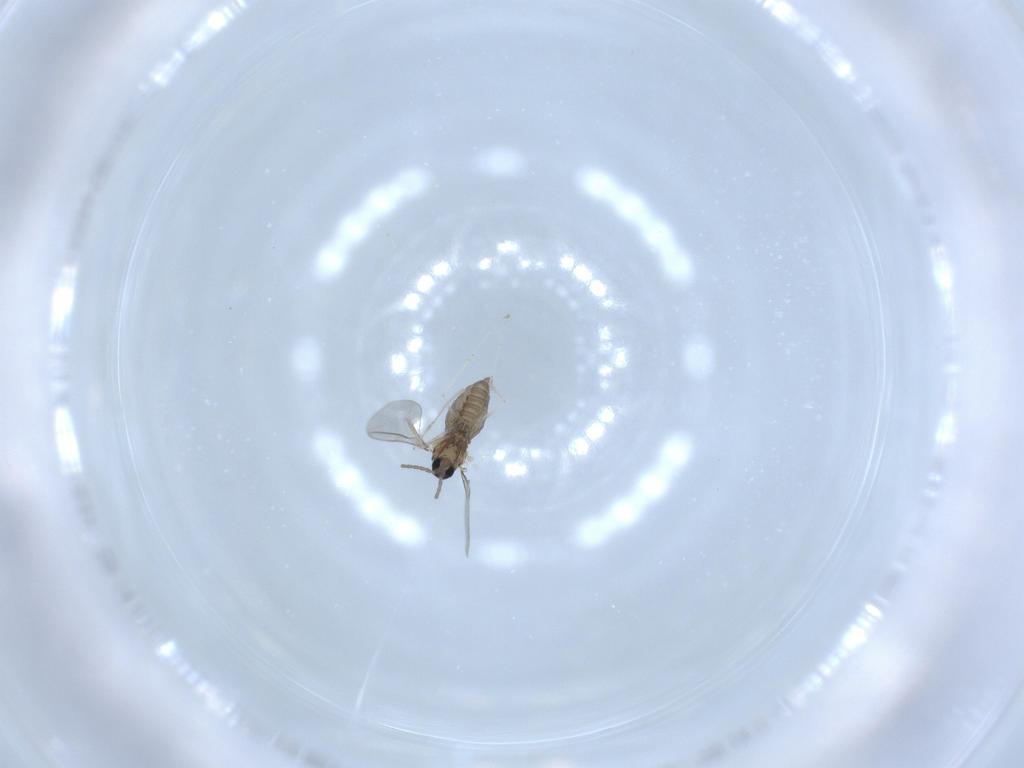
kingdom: Animalia
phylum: Arthropoda
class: Insecta
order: Diptera
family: Cecidomyiidae
